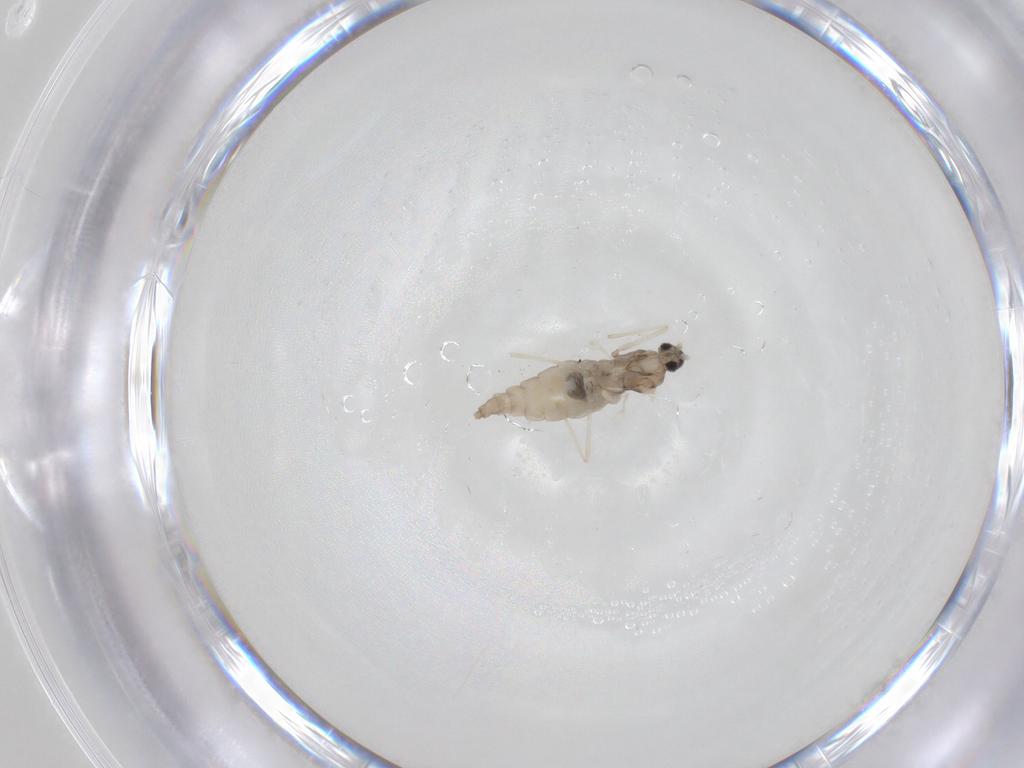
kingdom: Animalia
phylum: Arthropoda
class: Insecta
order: Diptera
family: Cecidomyiidae
